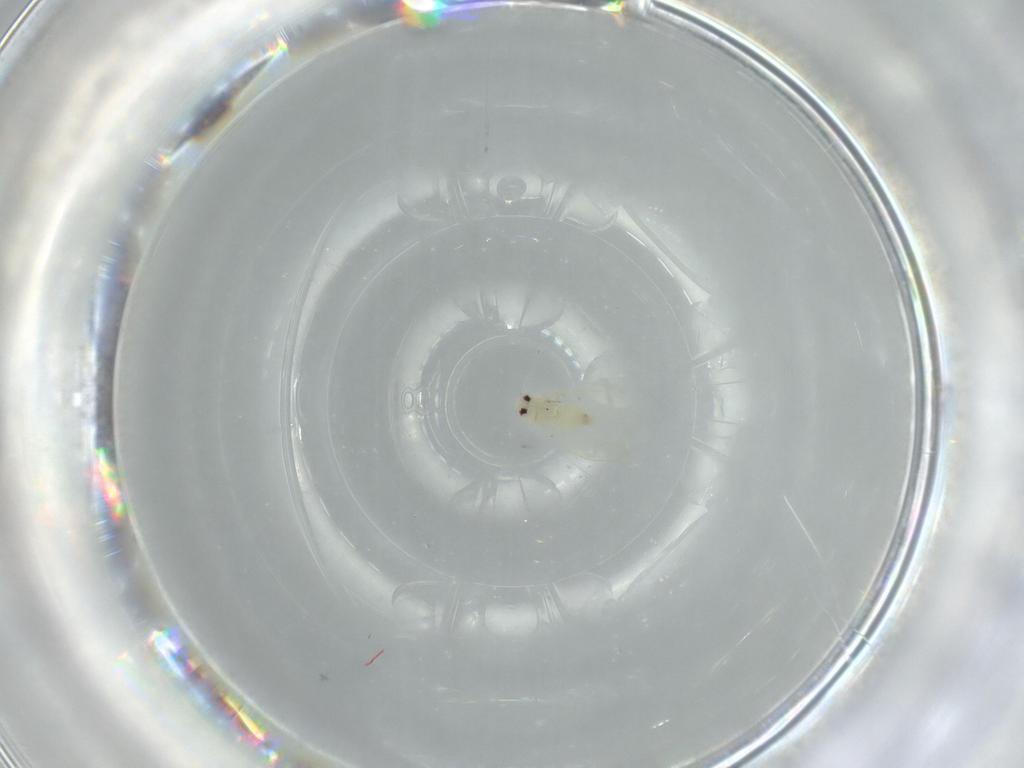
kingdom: Animalia
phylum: Arthropoda
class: Insecta
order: Hemiptera
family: Aleyrodidae
